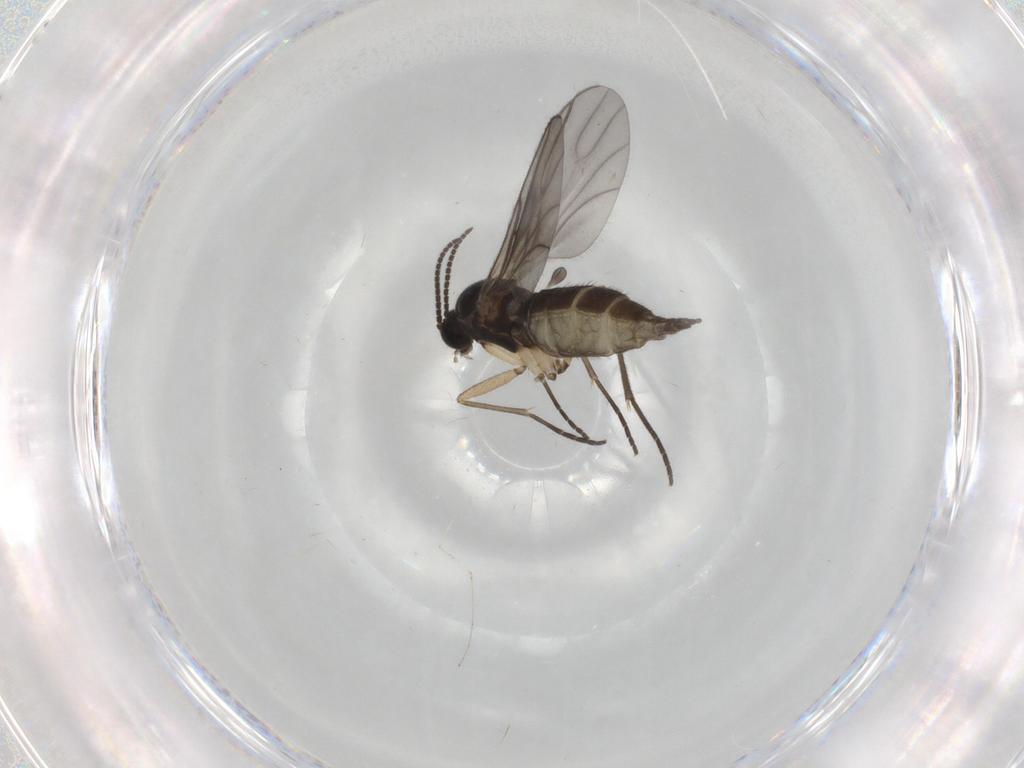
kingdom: Animalia
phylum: Arthropoda
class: Insecta
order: Diptera
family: Sciaridae
